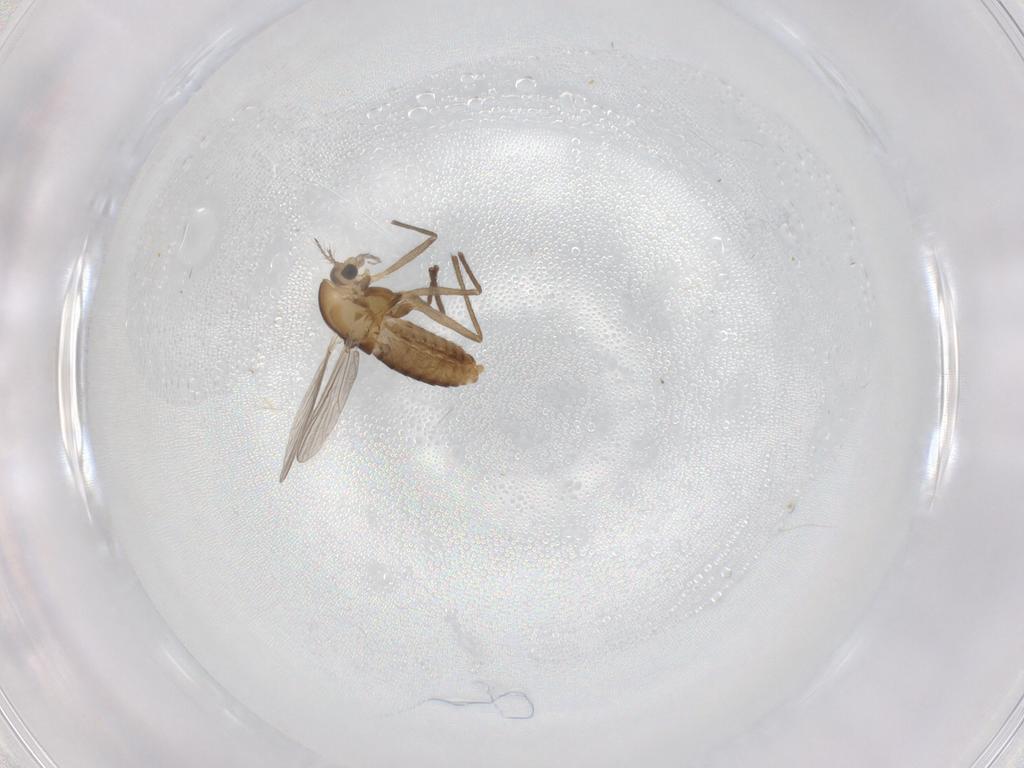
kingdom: Animalia
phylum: Arthropoda
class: Insecta
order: Diptera
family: Chironomidae
